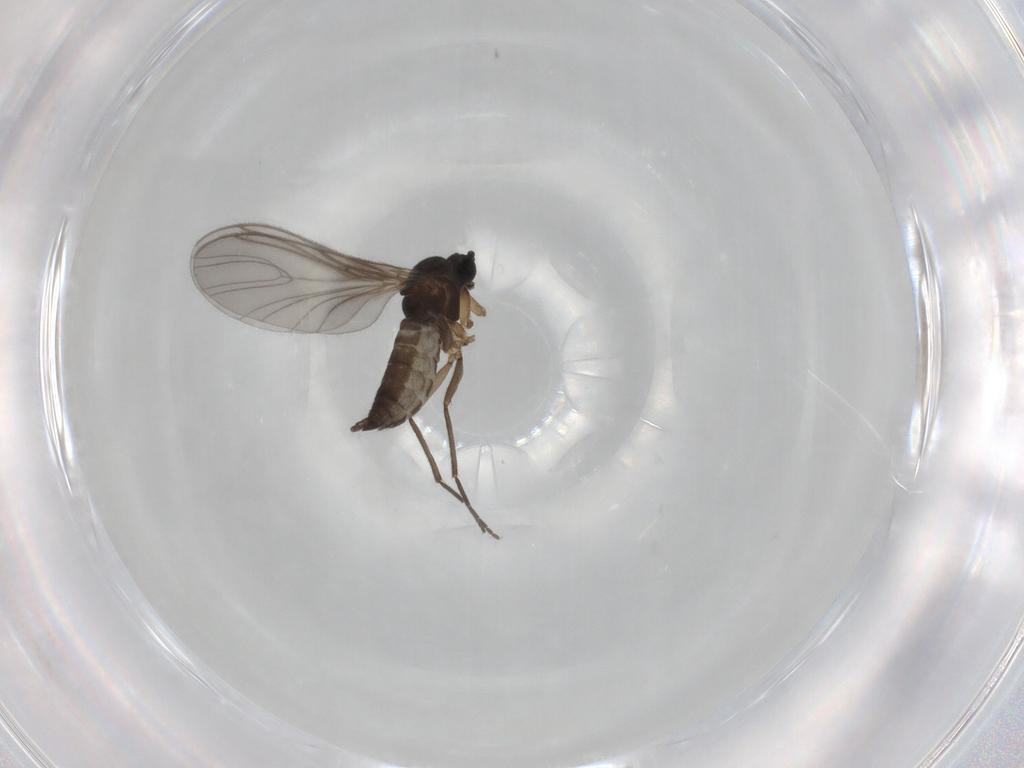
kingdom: Animalia
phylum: Arthropoda
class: Insecta
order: Diptera
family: Sciaridae
